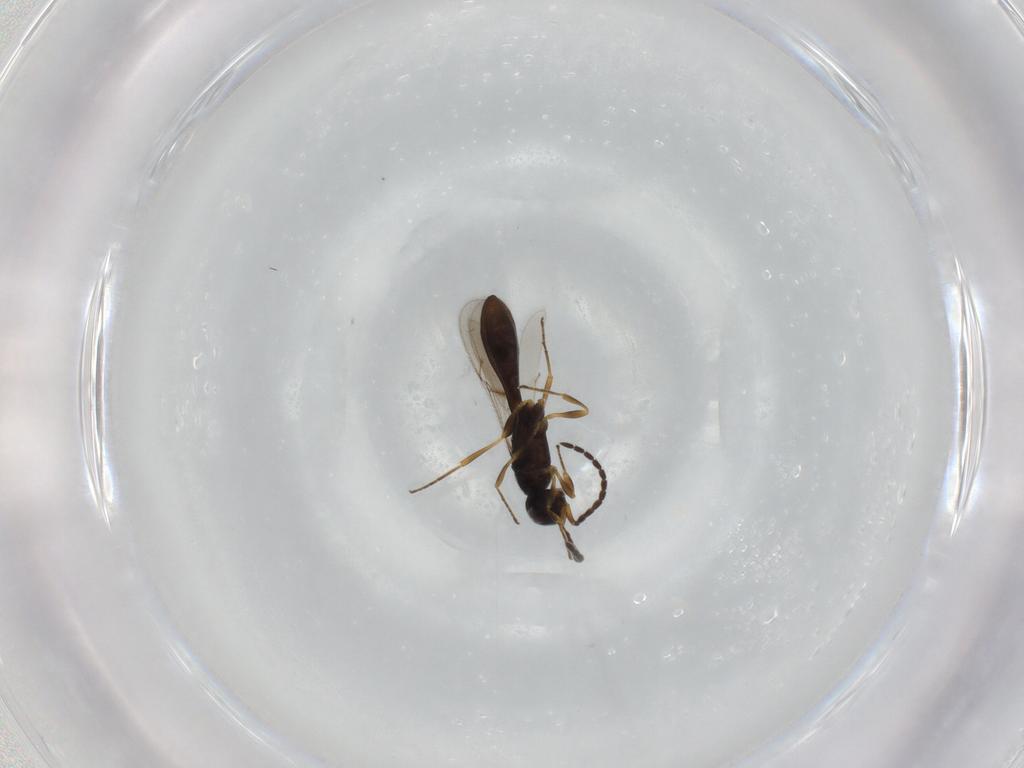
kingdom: Animalia
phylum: Arthropoda
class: Insecta
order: Hymenoptera
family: Scelionidae
